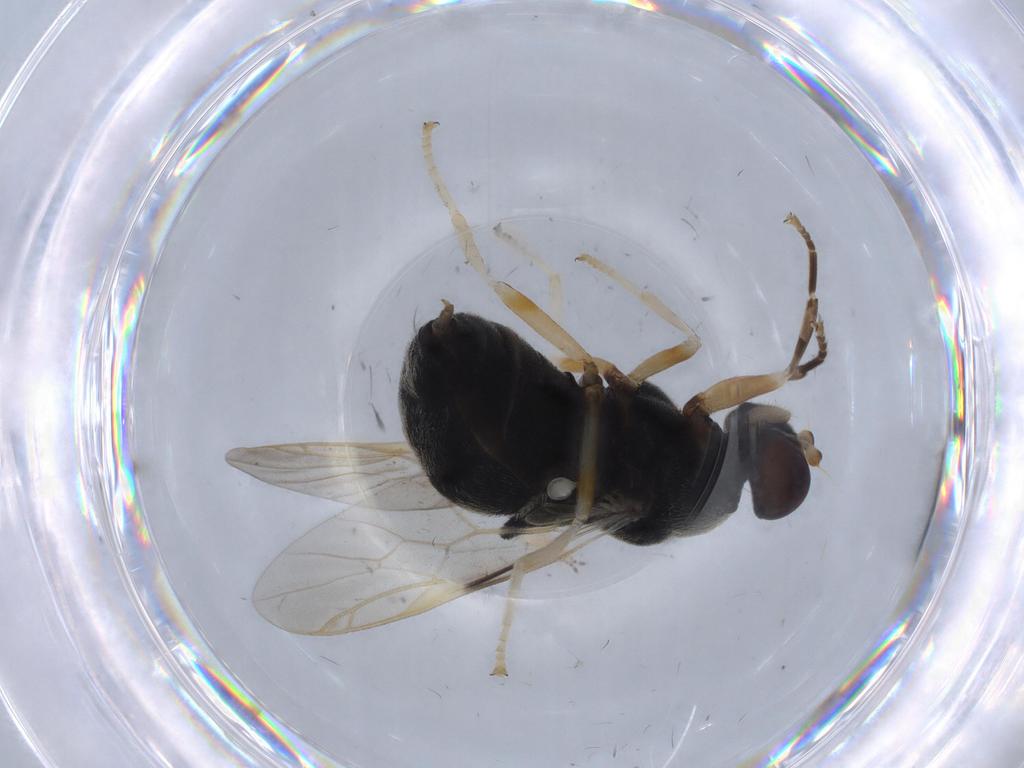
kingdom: Animalia
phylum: Arthropoda
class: Insecta
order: Diptera
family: Stratiomyidae
